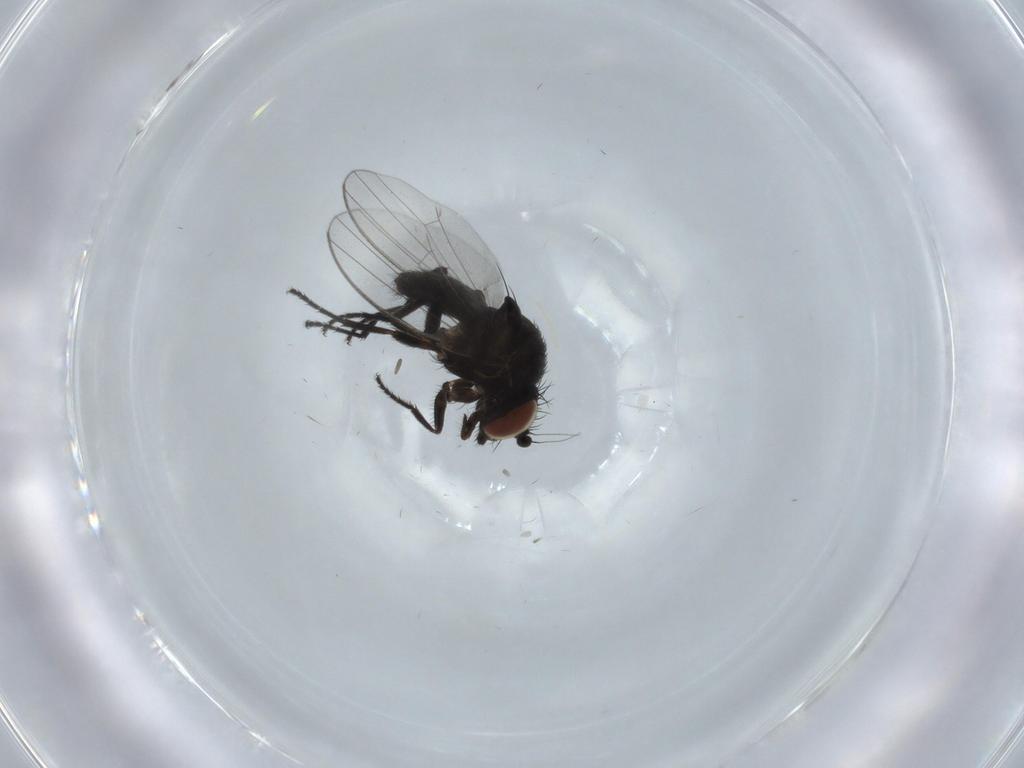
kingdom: Animalia
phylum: Arthropoda
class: Insecta
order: Diptera
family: Milichiidae
